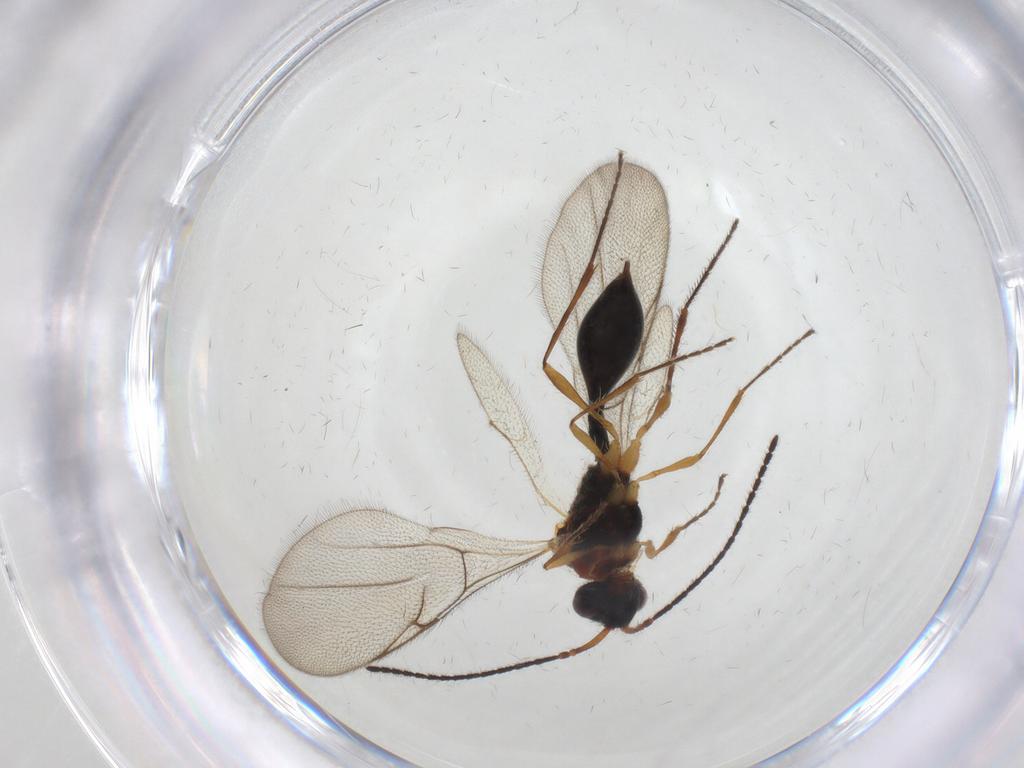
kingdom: Animalia
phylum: Arthropoda
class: Insecta
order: Hymenoptera
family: Diapriidae
